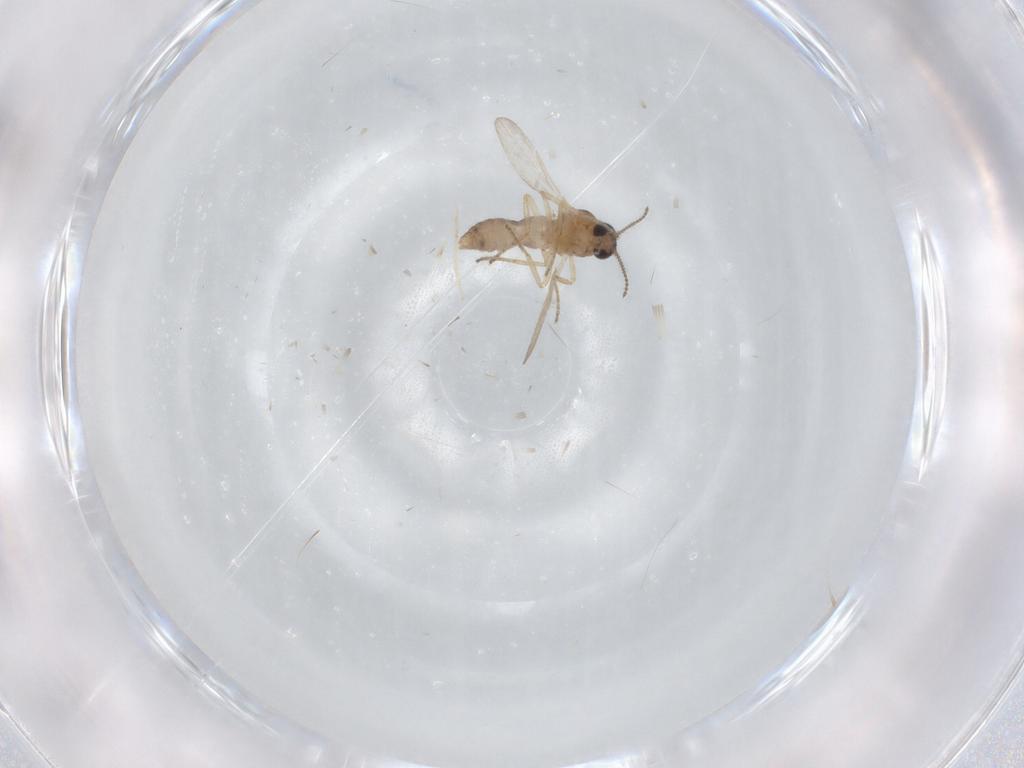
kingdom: Animalia
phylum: Arthropoda
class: Insecta
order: Diptera
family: Ceratopogonidae
